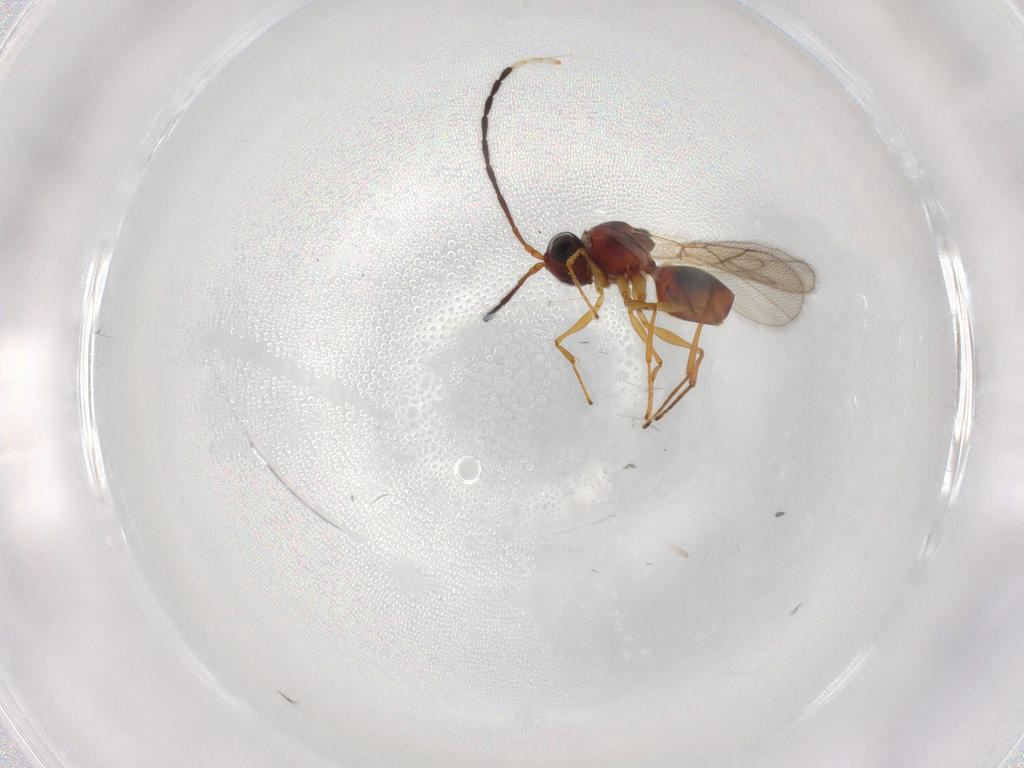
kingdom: Animalia
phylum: Arthropoda
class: Insecta
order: Hymenoptera
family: Figitidae
